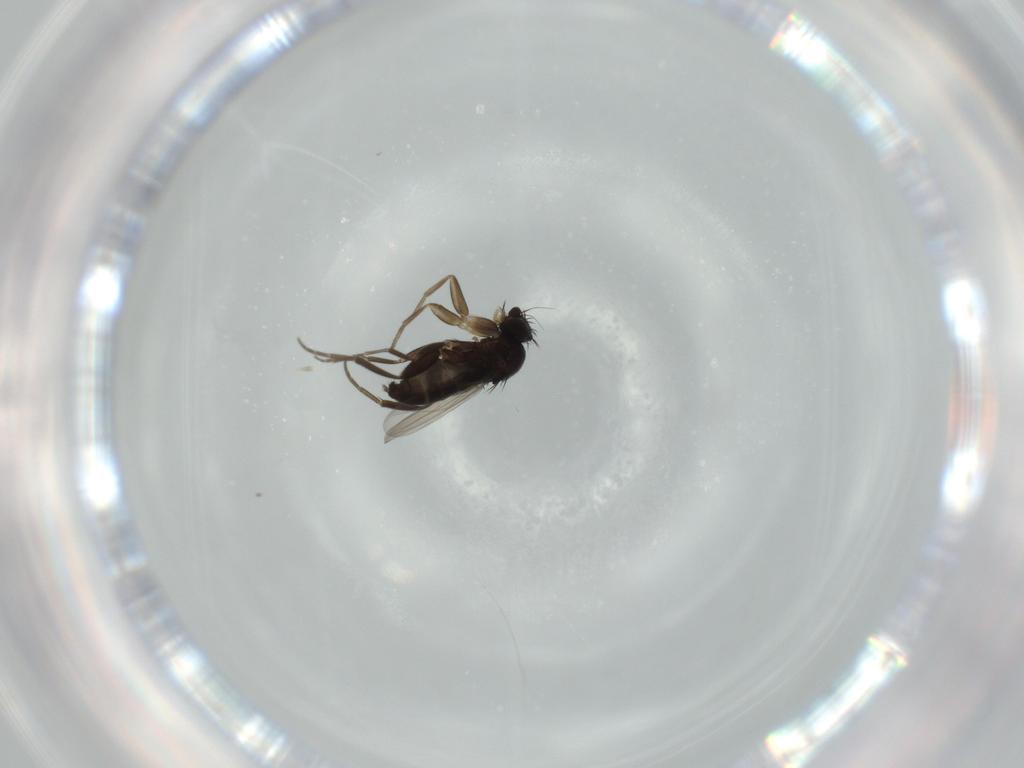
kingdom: Animalia
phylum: Arthropoda
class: Insecta
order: Diptera
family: Phoridae
